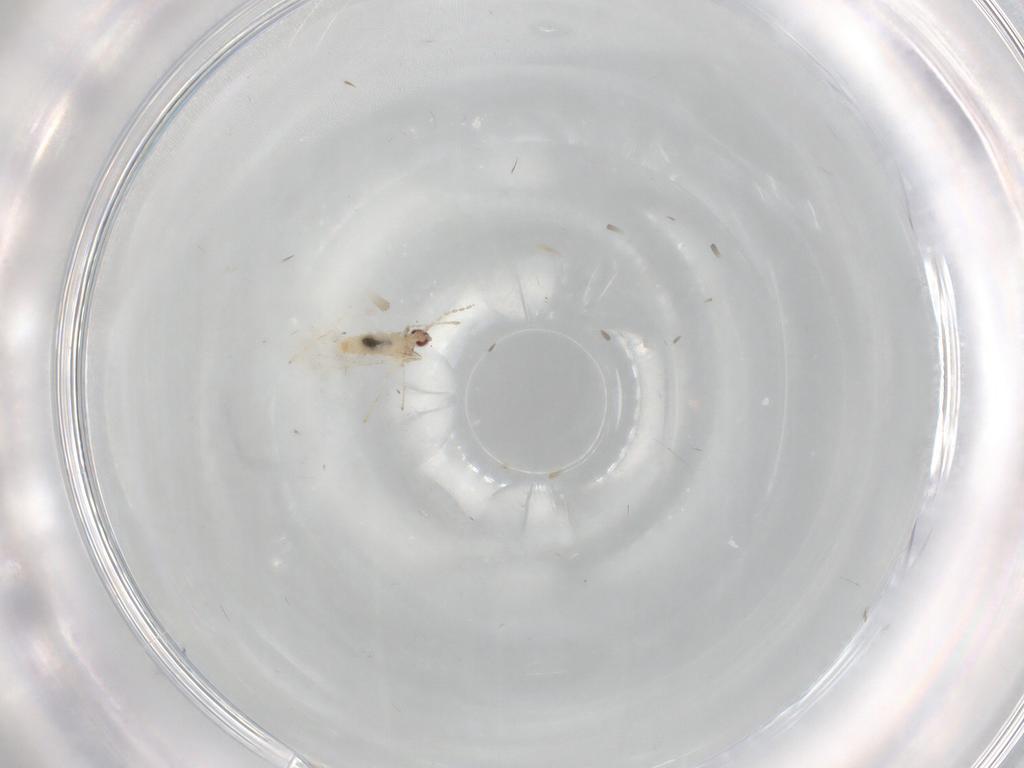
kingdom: Animalia
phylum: Arthropoda
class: Insecta
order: Diptera
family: Cecidomyiidae
